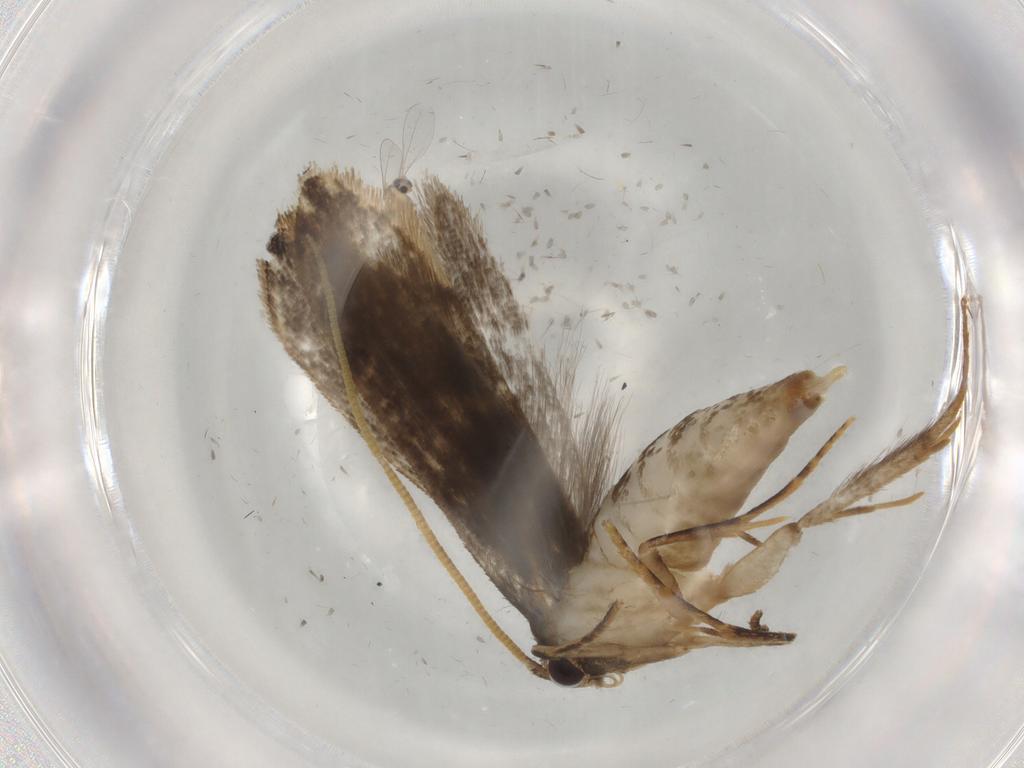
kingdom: Animalia
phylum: Arthropoda
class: Insecta
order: Lepidoptera
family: Tineidae
